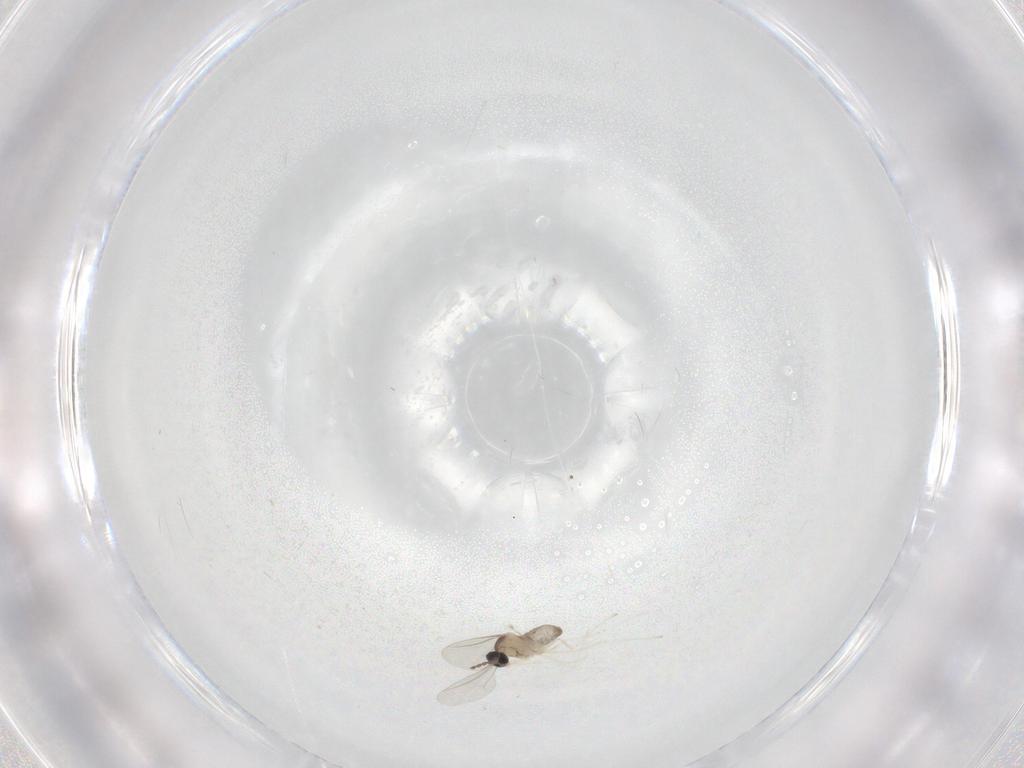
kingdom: Animalia
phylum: Arthropoda
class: Insecta
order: Diptera
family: Cecidomyiidae
